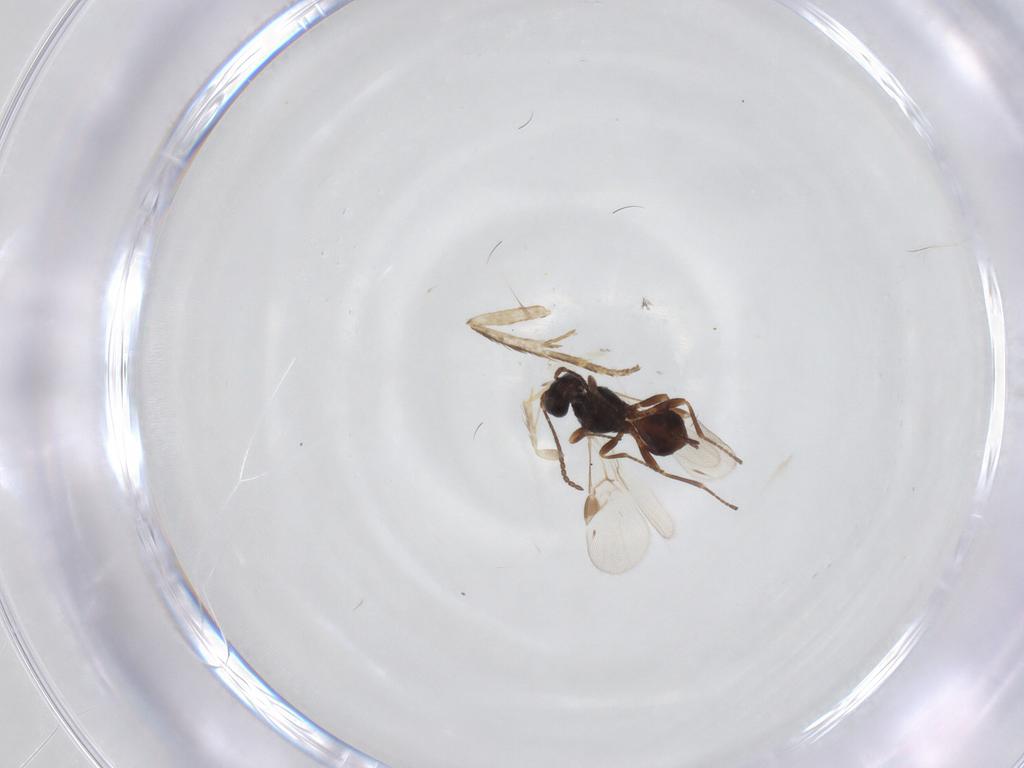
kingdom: Animalia
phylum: Arthropoda
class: Insecta
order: Hymenoptera
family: Braconidae
